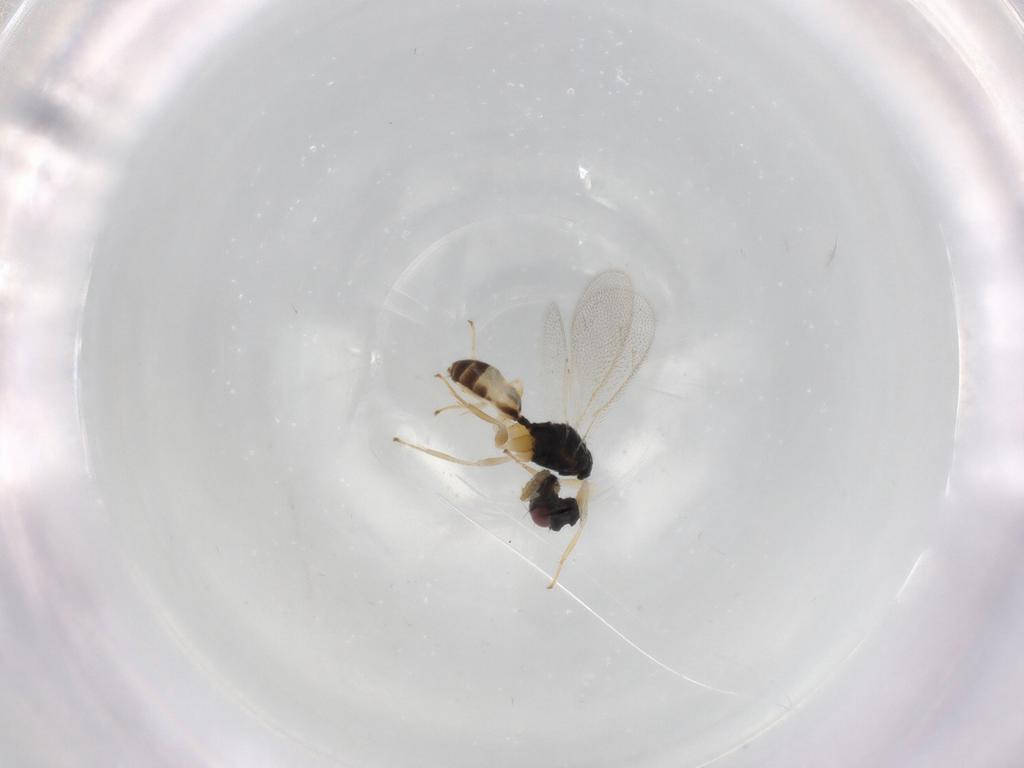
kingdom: Animalia
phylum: Arthropoda
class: Insecta
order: Hymenoptera
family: Eulophidae
